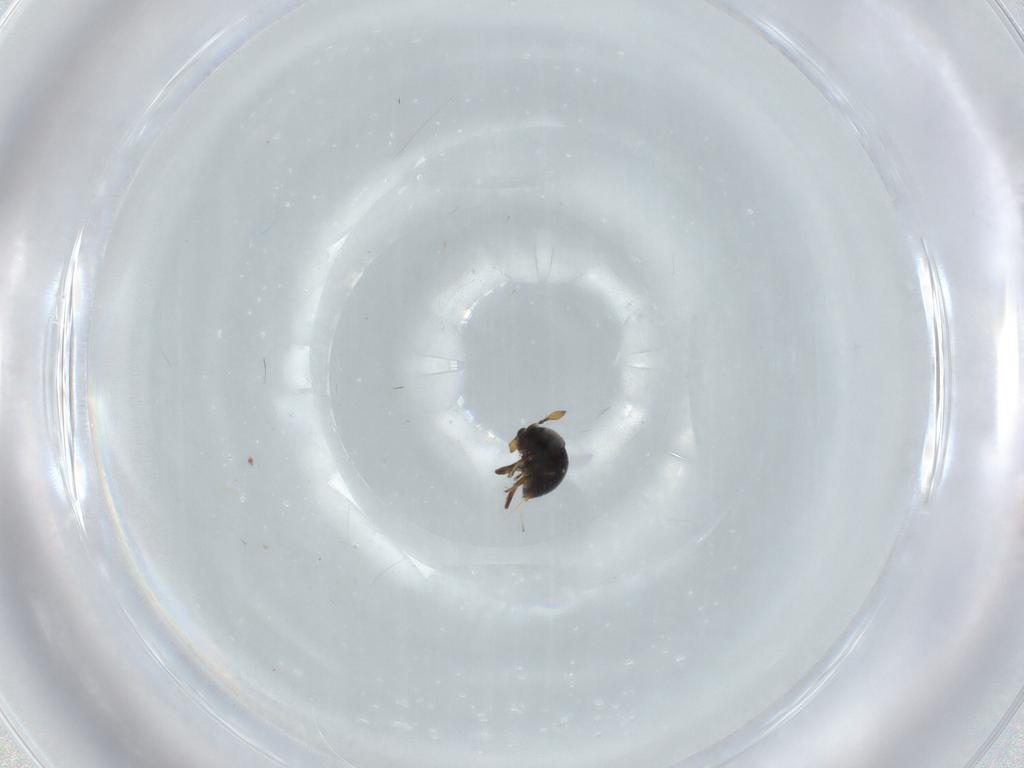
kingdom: Animalia
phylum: Arthropoda
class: Insecta
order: Hymenoptera
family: Scelionidae
